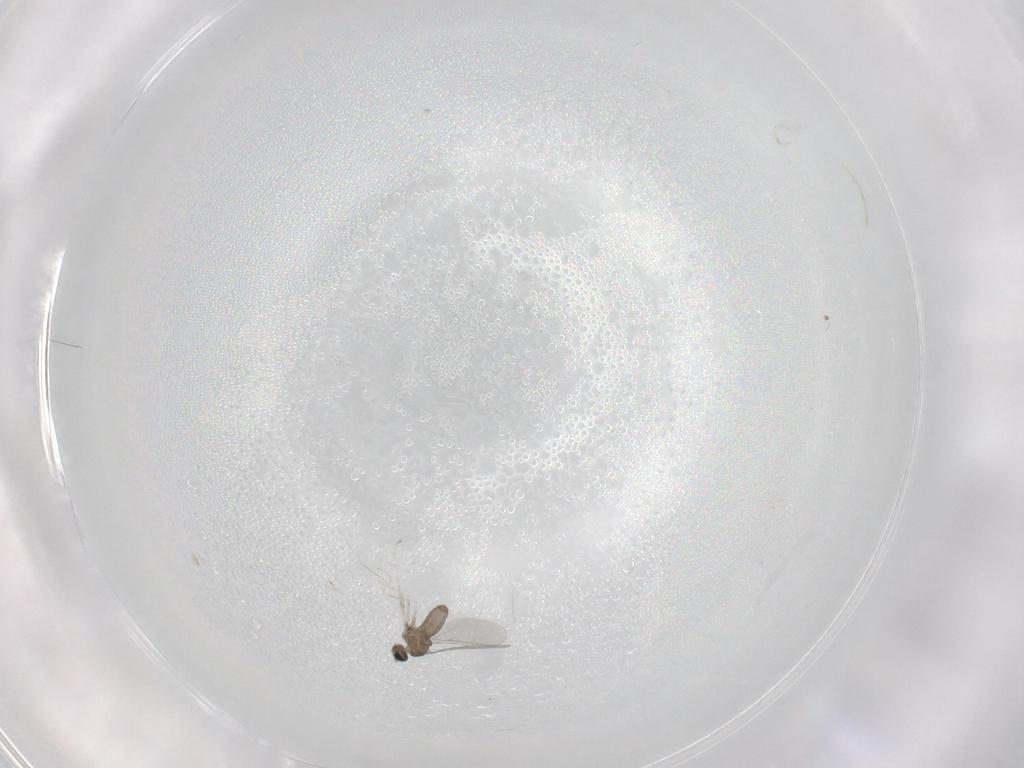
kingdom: Animalia
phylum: Arthropoda
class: Insecta
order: Diptera
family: Cecidomyiidae
